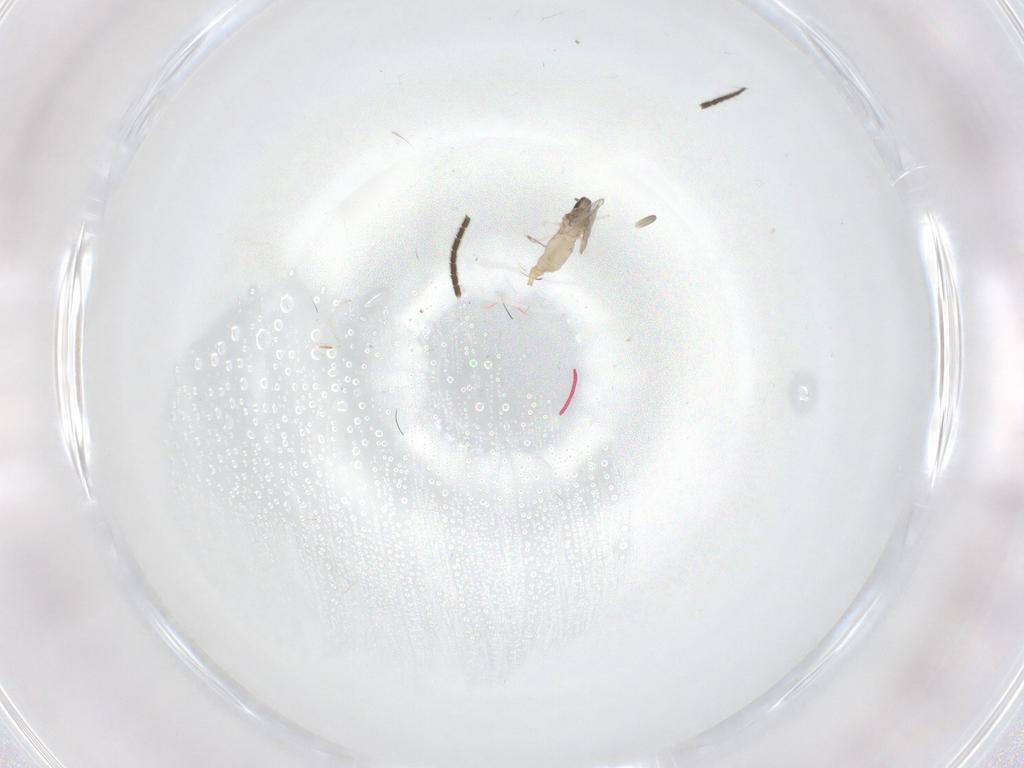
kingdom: Animalia
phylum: Arthropoda
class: Insecta
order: Diptera
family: Sciaridae
